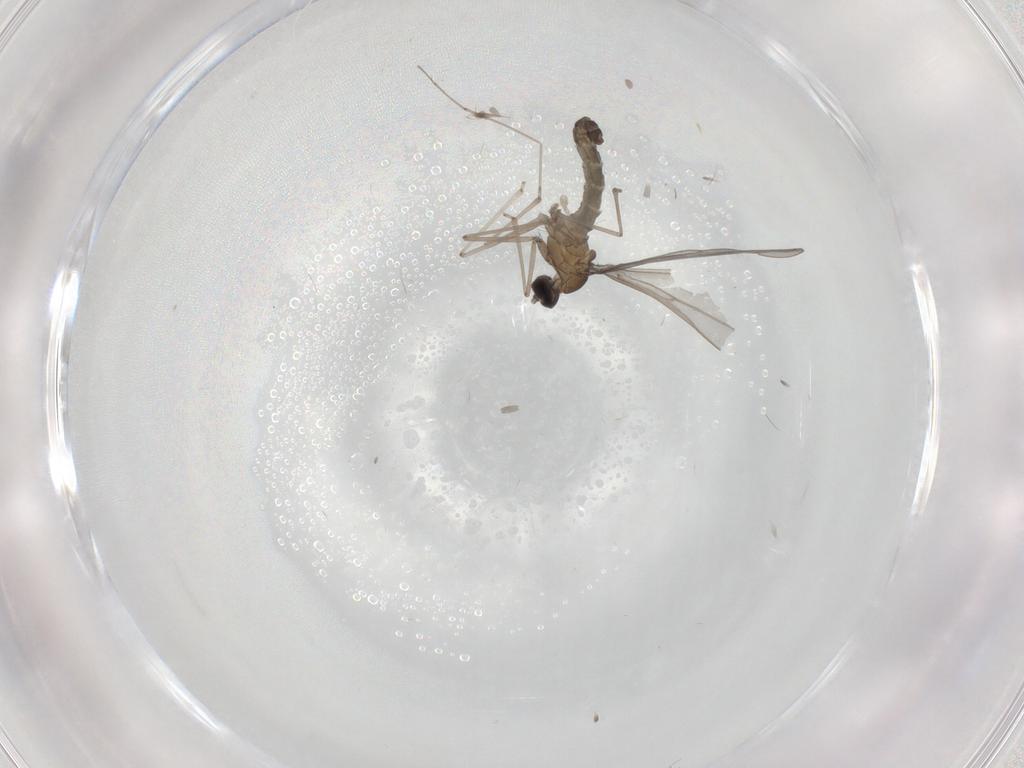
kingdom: Animalia
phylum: Arthropoda
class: Insecta
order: Diptera
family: Cecidomyiidae
